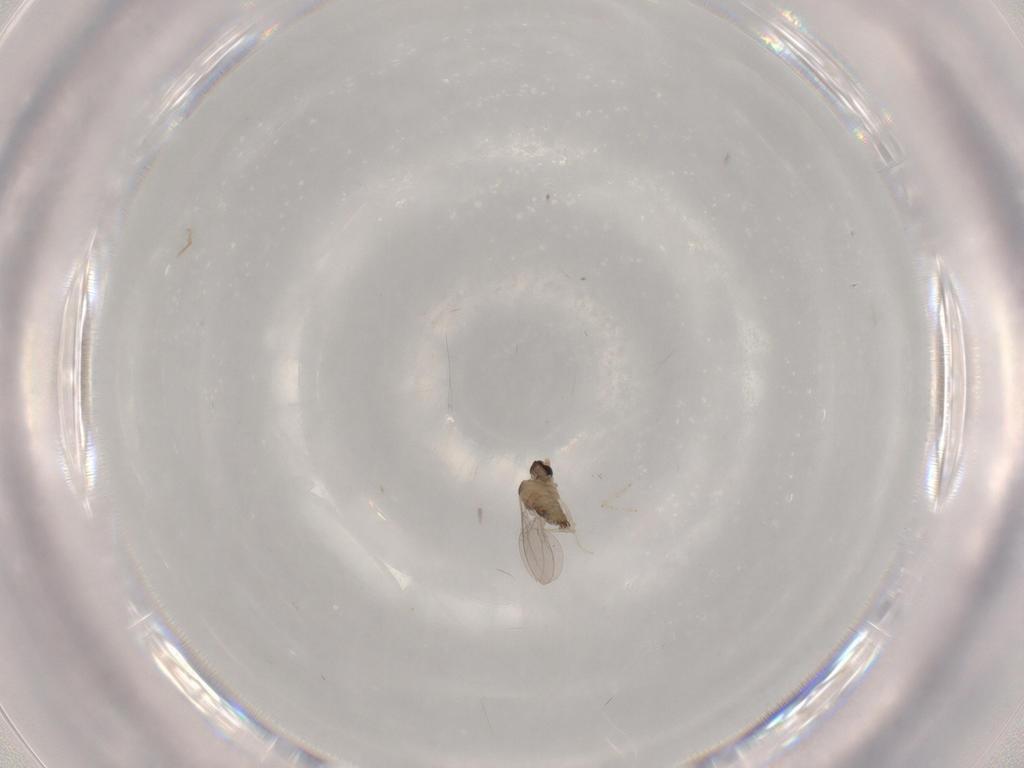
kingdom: Animalia
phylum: Arthropoda
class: Insecta
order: Diptera
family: Cecidomyiidae
